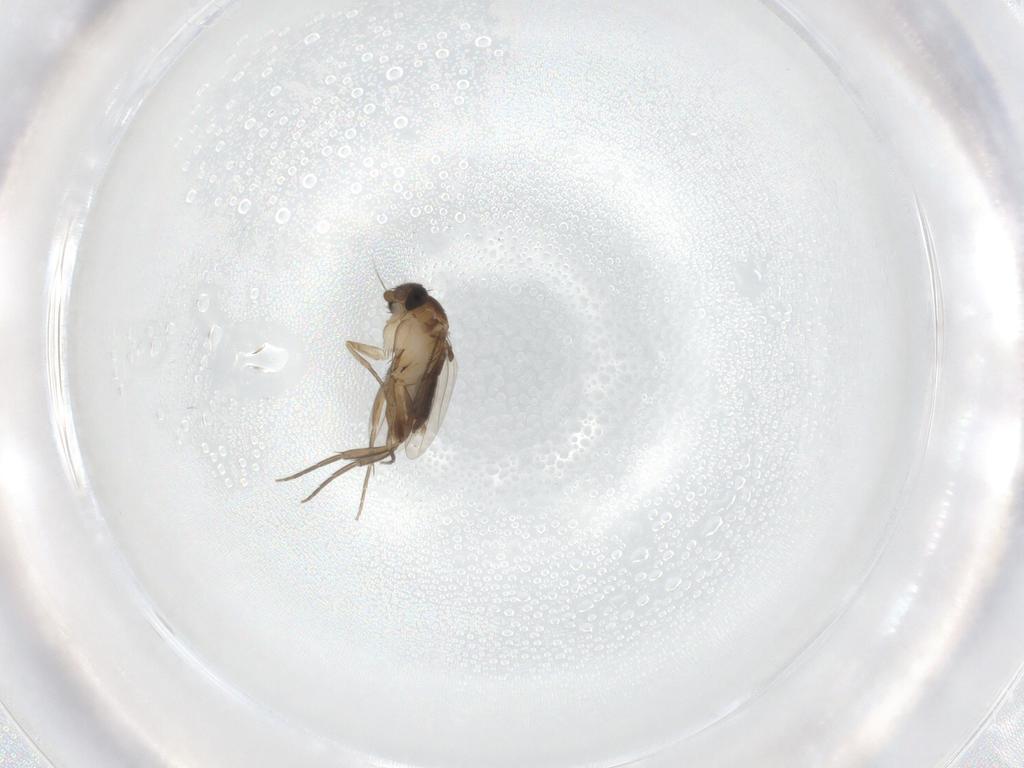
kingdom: Animalia
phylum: Arthropoda
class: Insecta
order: Diptera
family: Phoridae
